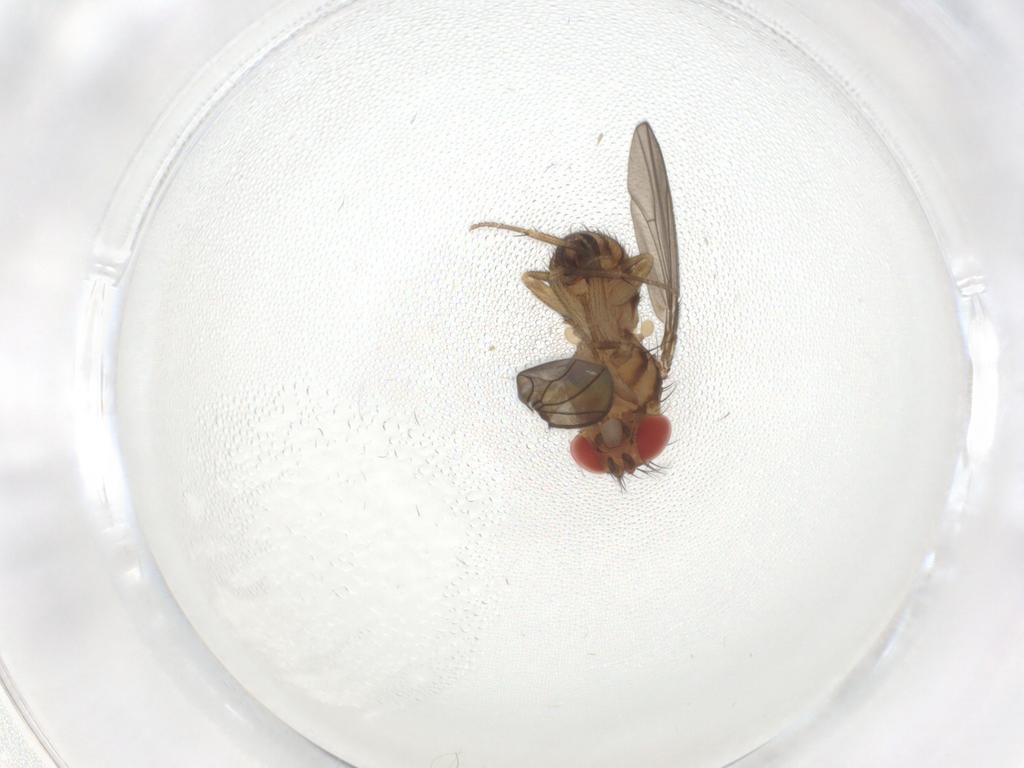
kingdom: Animalia
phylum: Arthropoda
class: Insecta
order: Diptera
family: Drosophilidae
